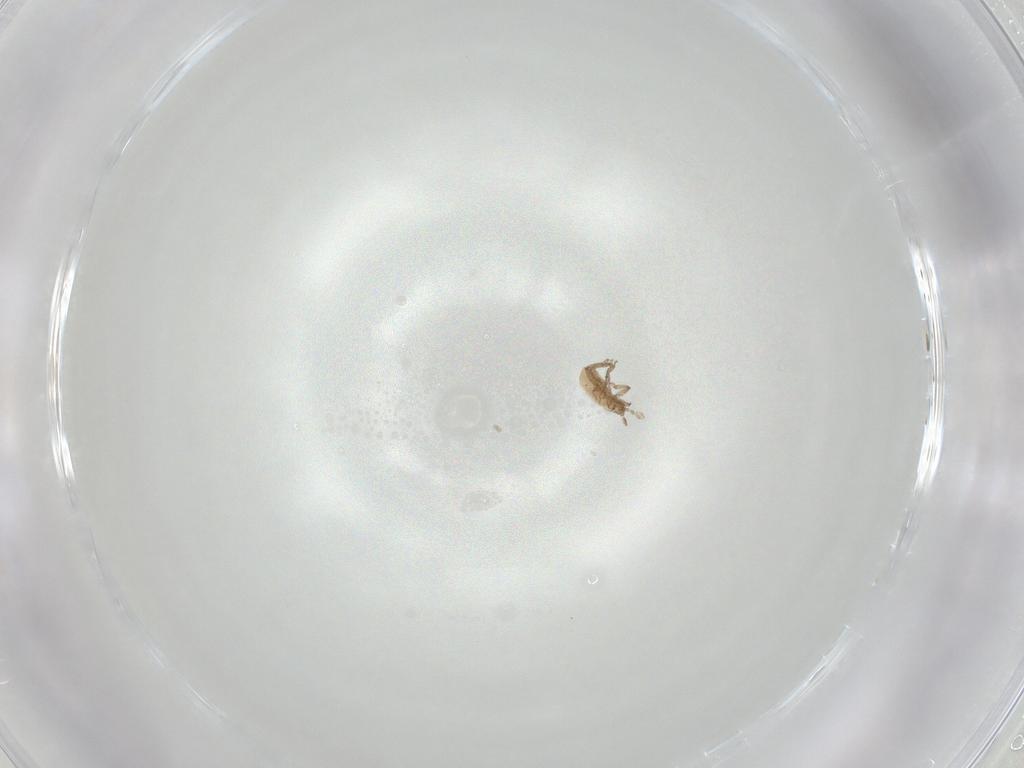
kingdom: Animalia
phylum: Arthropoda
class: Insecta
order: Hemiptera
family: Aphididae
